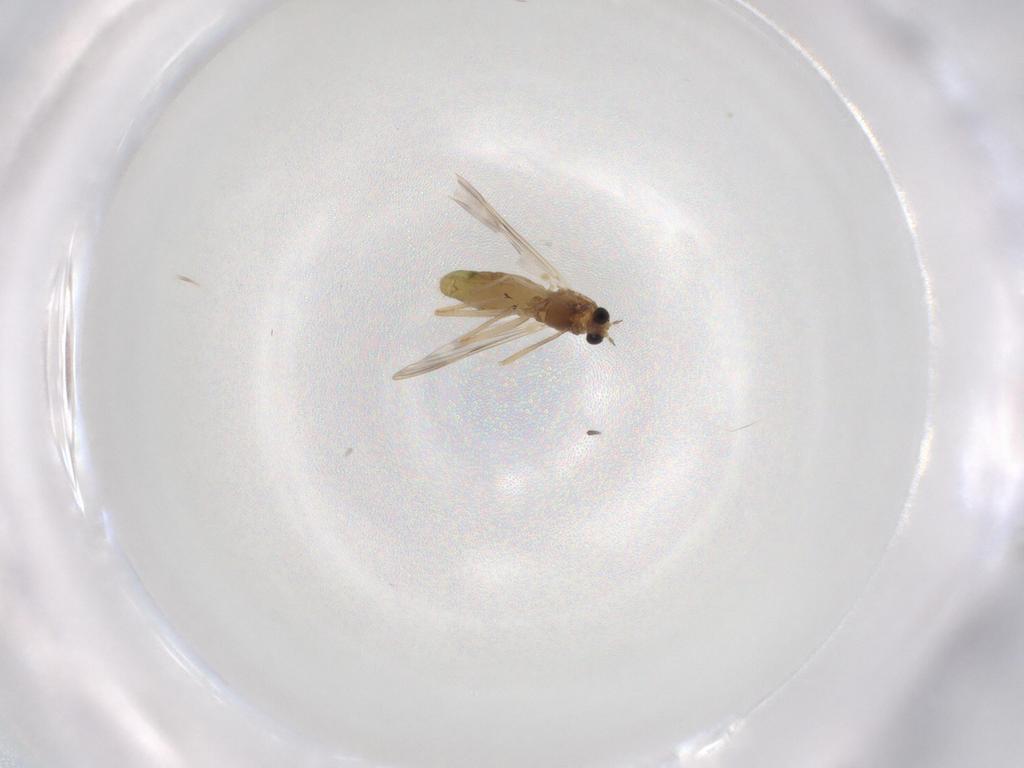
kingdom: Animalia
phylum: Arthropoda
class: Insecta
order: Diptera
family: Chironomidae
